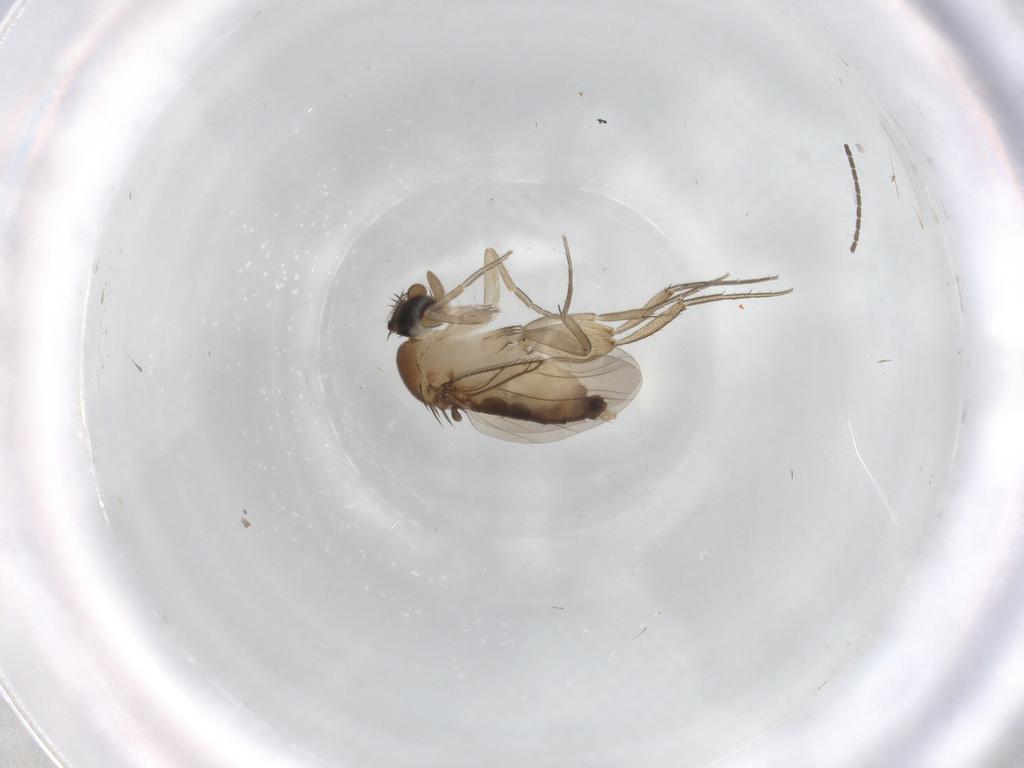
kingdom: Animalia
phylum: Arthropoda
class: Insecta
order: Diptera
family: Phoridae
